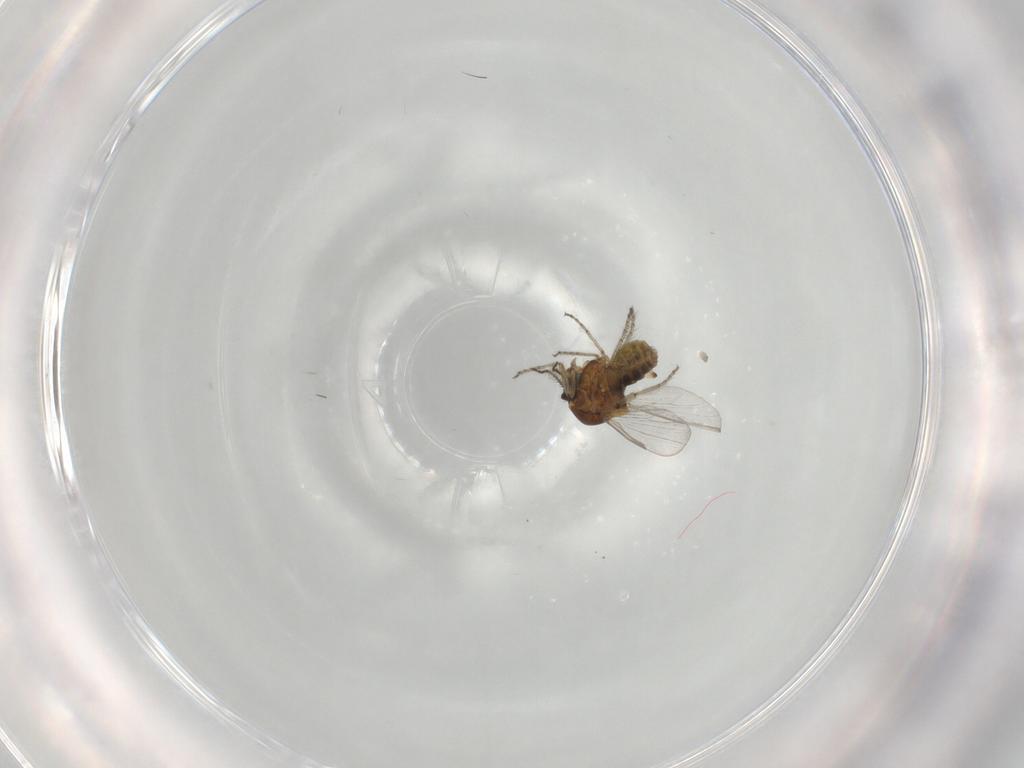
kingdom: Animalia
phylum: Arthropoda
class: Insecta
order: Diptera
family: Ceratopogonidae
